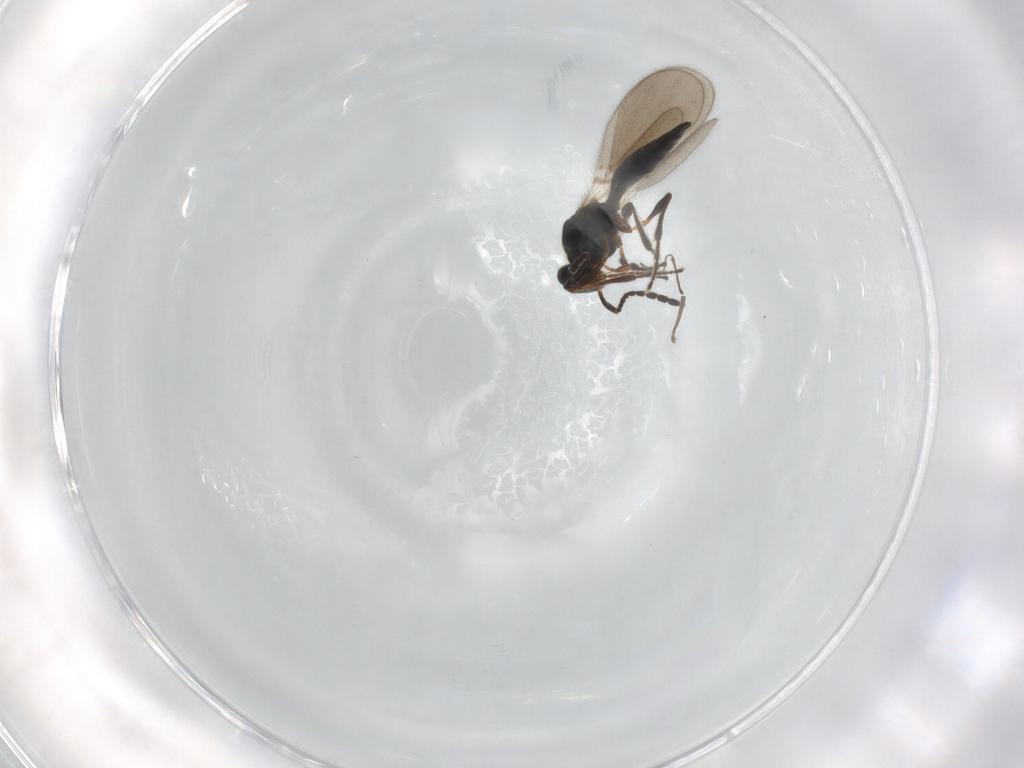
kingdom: Animalia
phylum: Arthropoda
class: Insecta
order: Hymenoptera
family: Platygastridae
